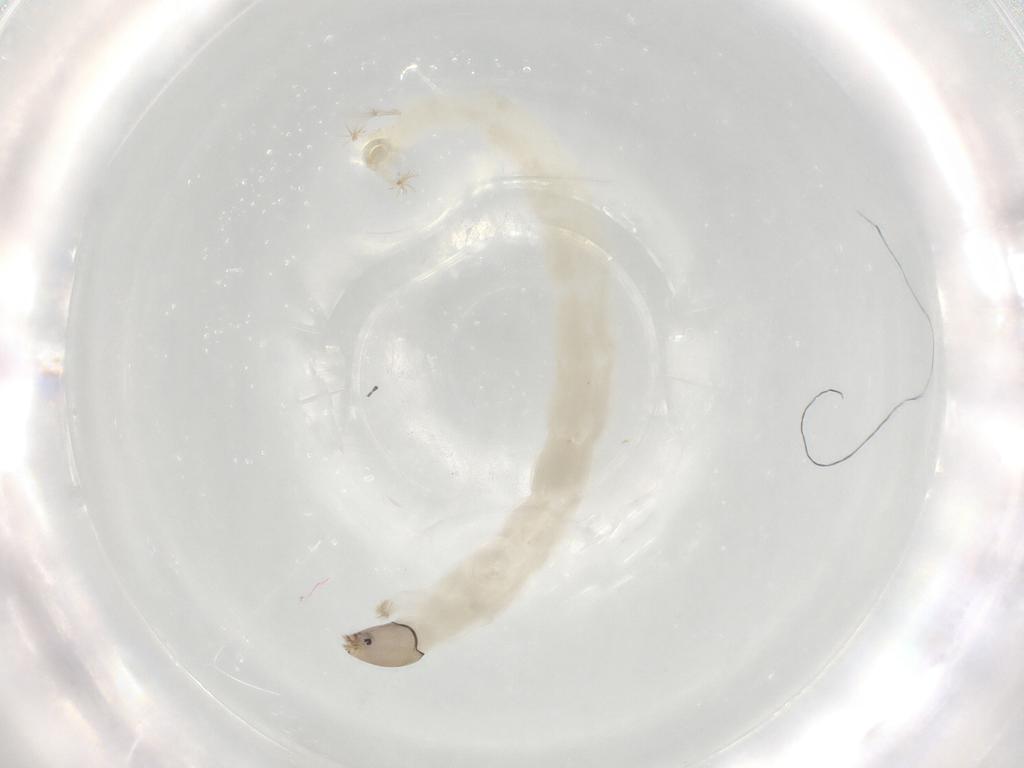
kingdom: Animalia
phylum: Arthropoda
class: Insecta
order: Diptera
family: Chironomidae
